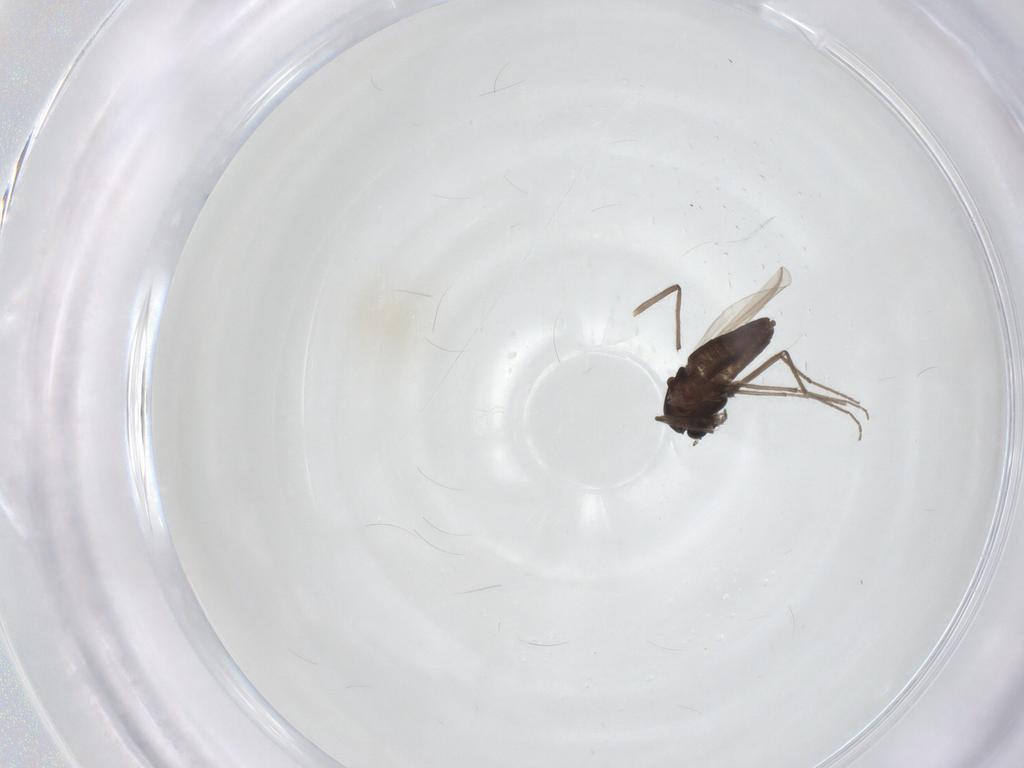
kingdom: Animalia
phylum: Arthropoda
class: Insecta
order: Diptera
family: Chironomidae
